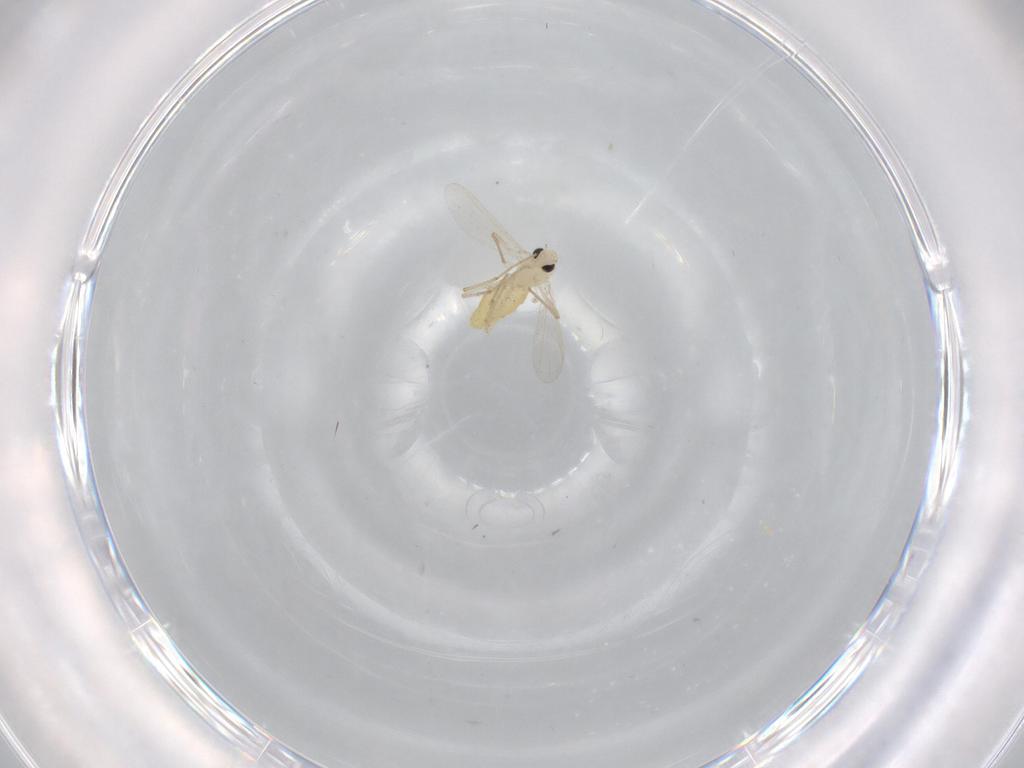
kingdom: Animalia
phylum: Arthropoda
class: Insecta
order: Diptera
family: Chironomidae
